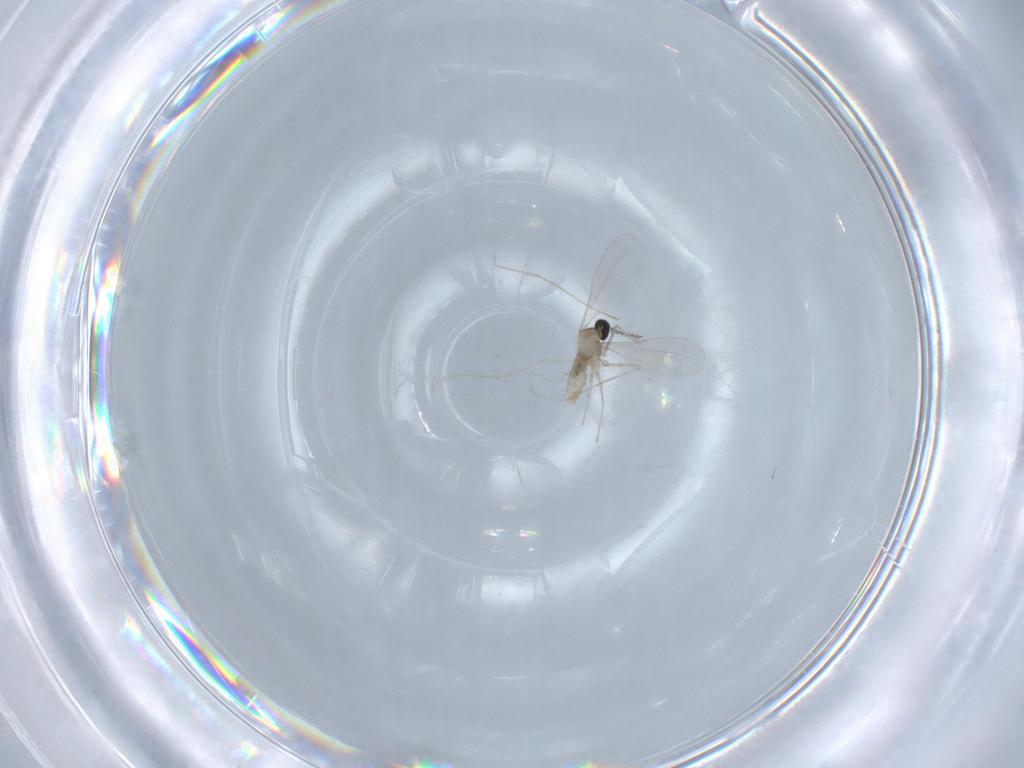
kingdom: Animalia
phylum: Arthropoda
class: Insecta
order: Diptera
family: Cecidomyiidae
